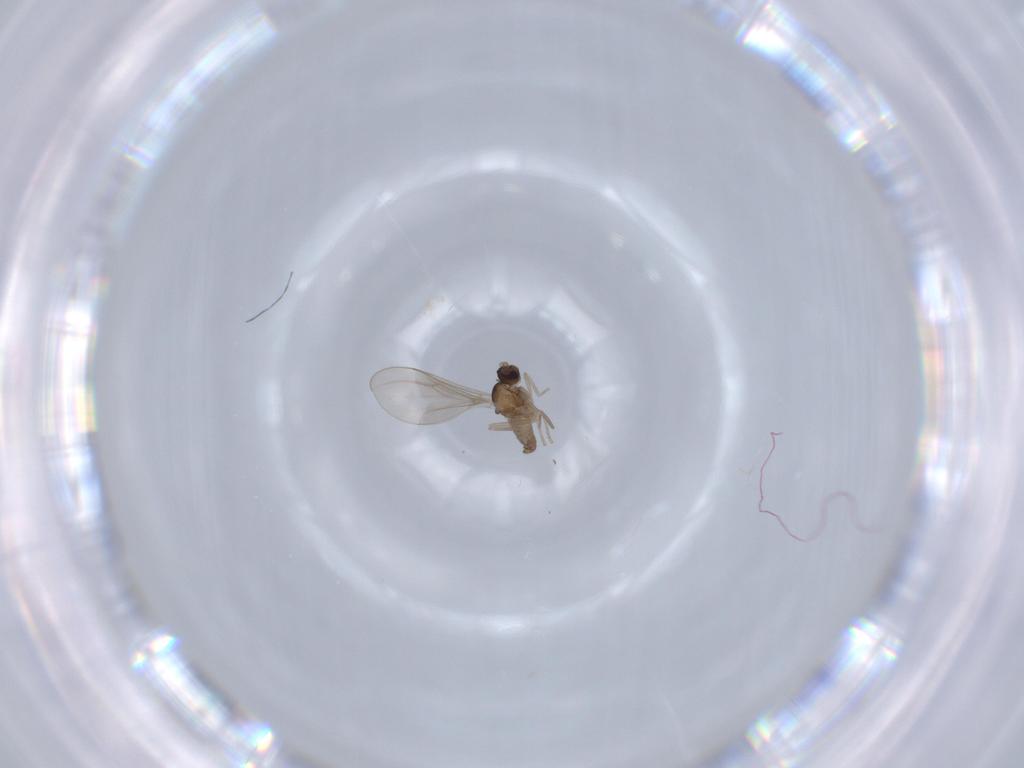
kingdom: Animalia
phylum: Arthropoda
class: Insecta
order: Diptera
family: Anthomyiidae
